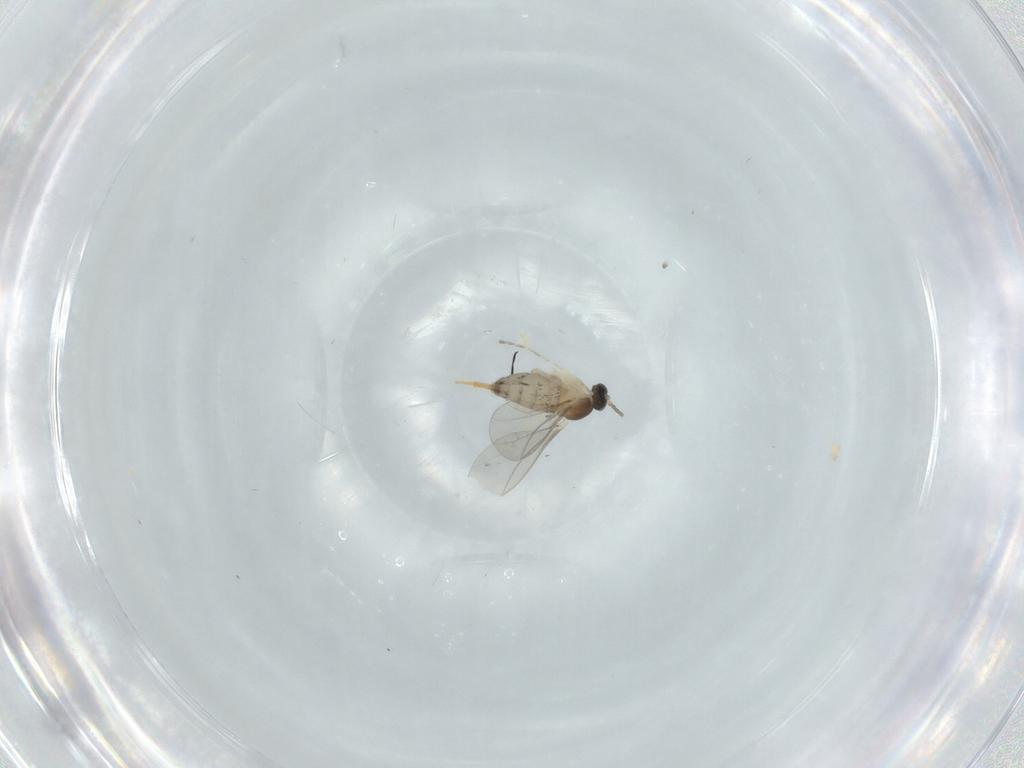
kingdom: Animalia
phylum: Arthropoda
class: Insecta
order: Diptera
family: Cecidomyiidae
